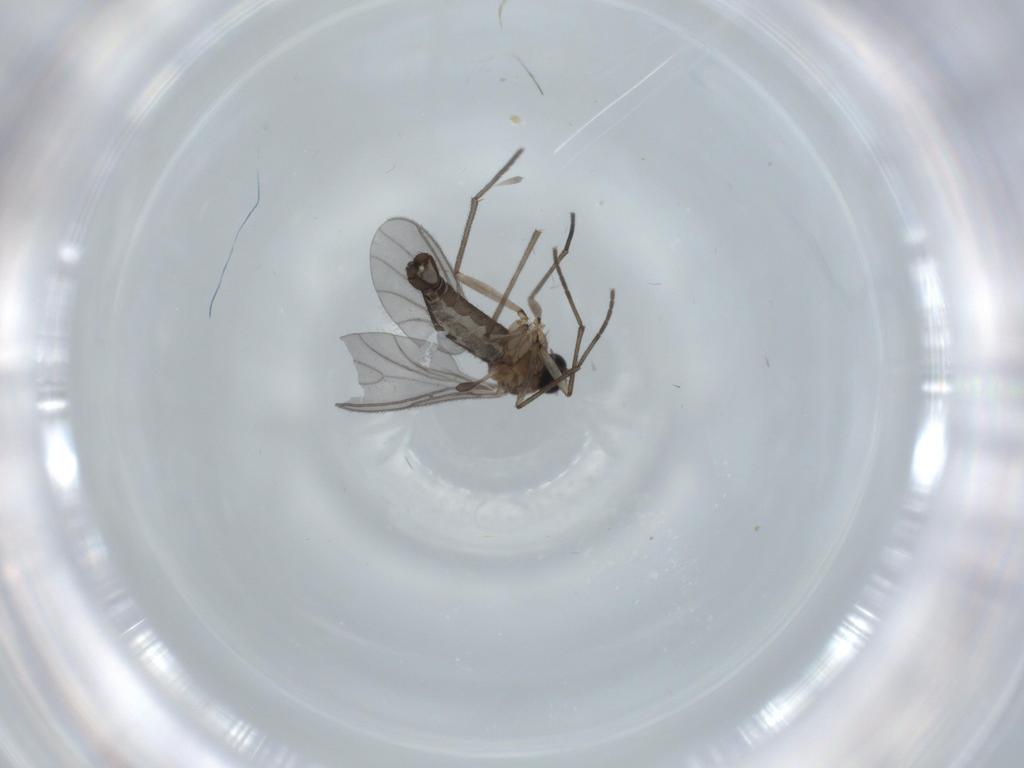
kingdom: Animalia
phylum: Arthropoda
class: Insecta
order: Diptera
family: Sciaridae
